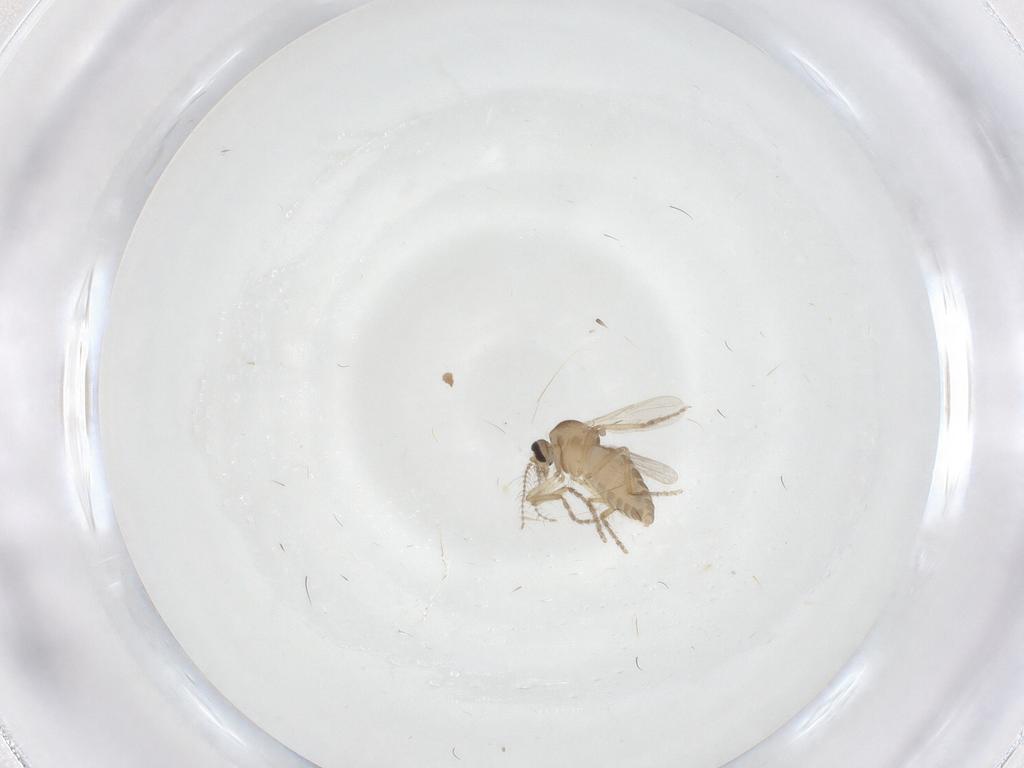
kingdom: Animalia
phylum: Arthropoda
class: Insecta
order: Diptera
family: Ceratopogonidae
